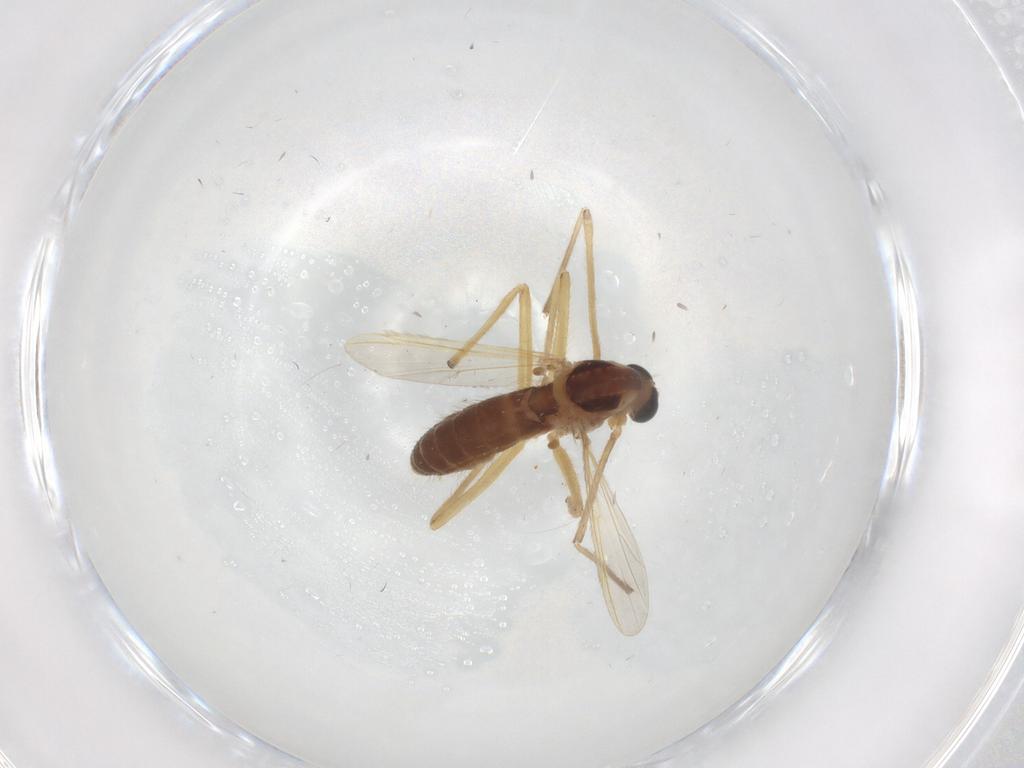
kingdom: Animalia
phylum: Arthropoda
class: Insecta
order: Diptera
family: Chironomidae
